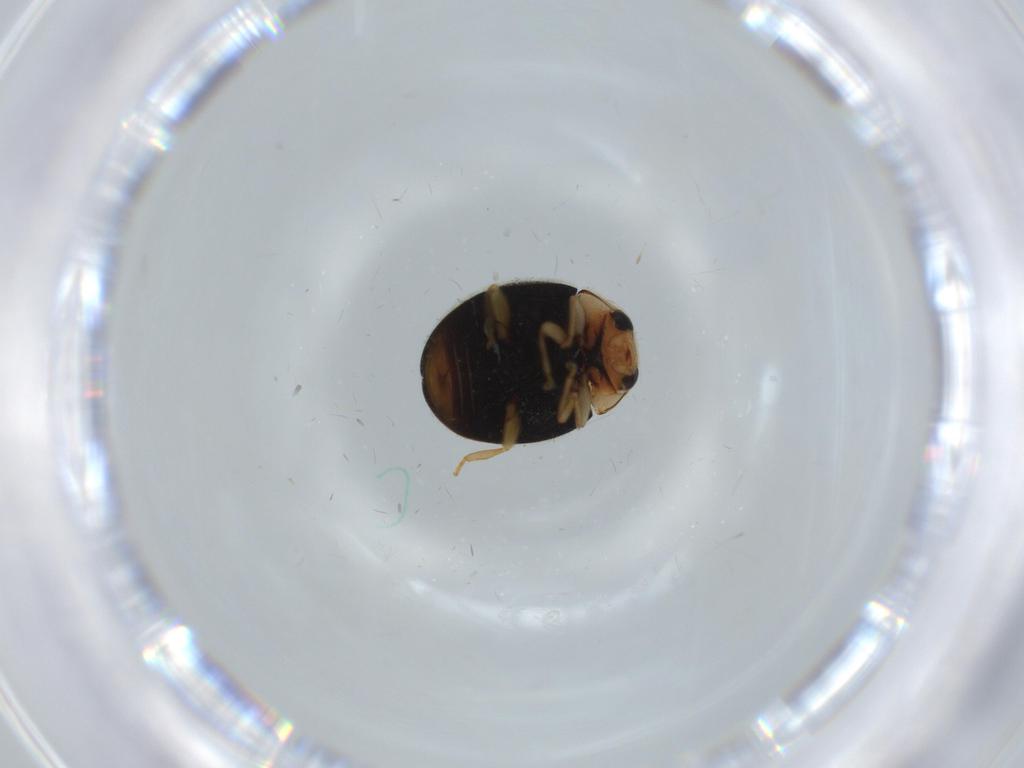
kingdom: Animalia
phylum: Arthropoda
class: Insecta
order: Coleoptera
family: Coccinellidae
